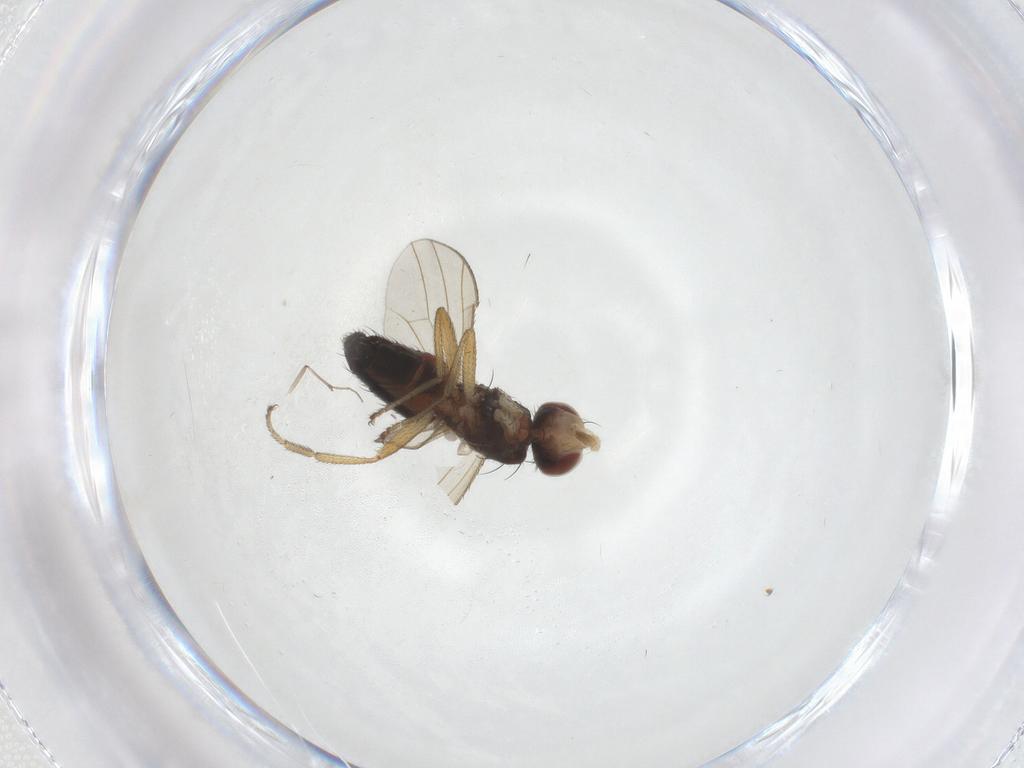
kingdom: Animalia
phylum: Arthropoda
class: Insecta
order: Diptera
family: Heleomyzidae
